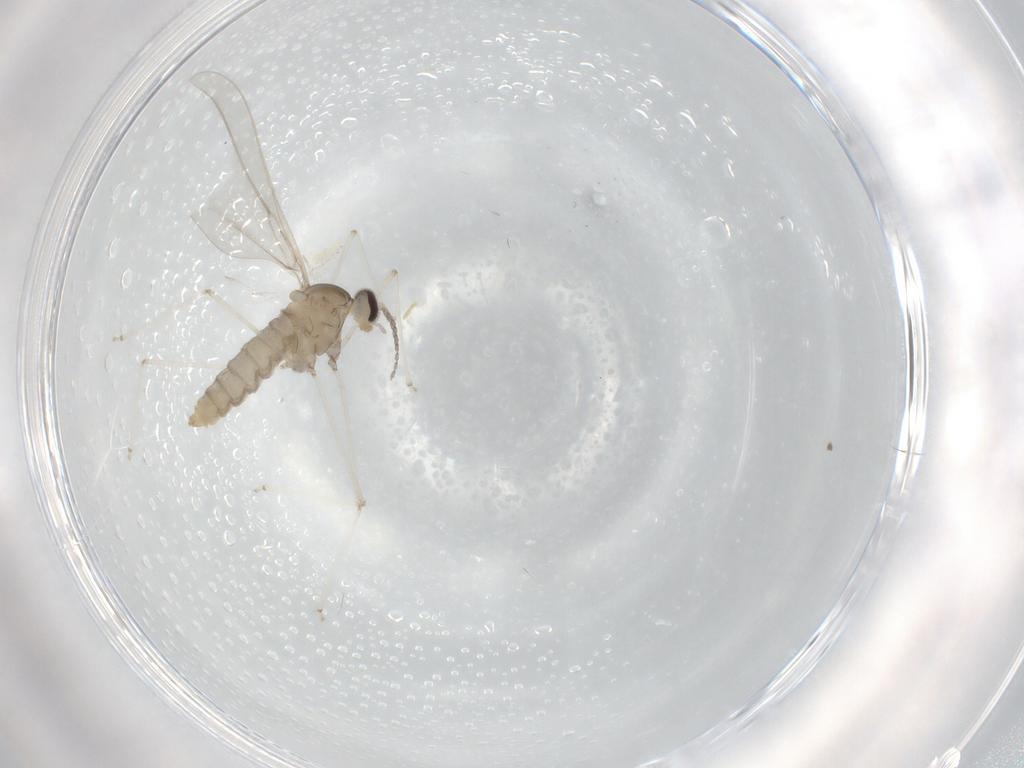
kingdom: Animalia
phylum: Arthropoda
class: Insecta
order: Diptera
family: Cecidomyiidae
